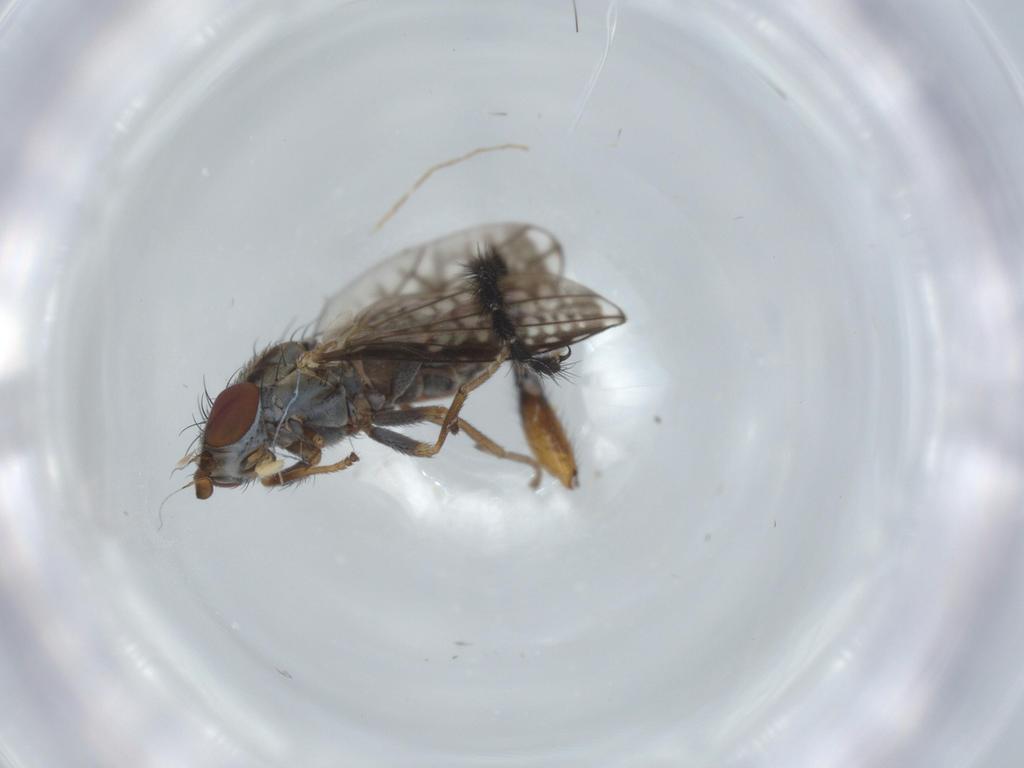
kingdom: Animalia
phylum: Arthropoda
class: Insecta
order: Diptera
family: Chamaemyiidae
